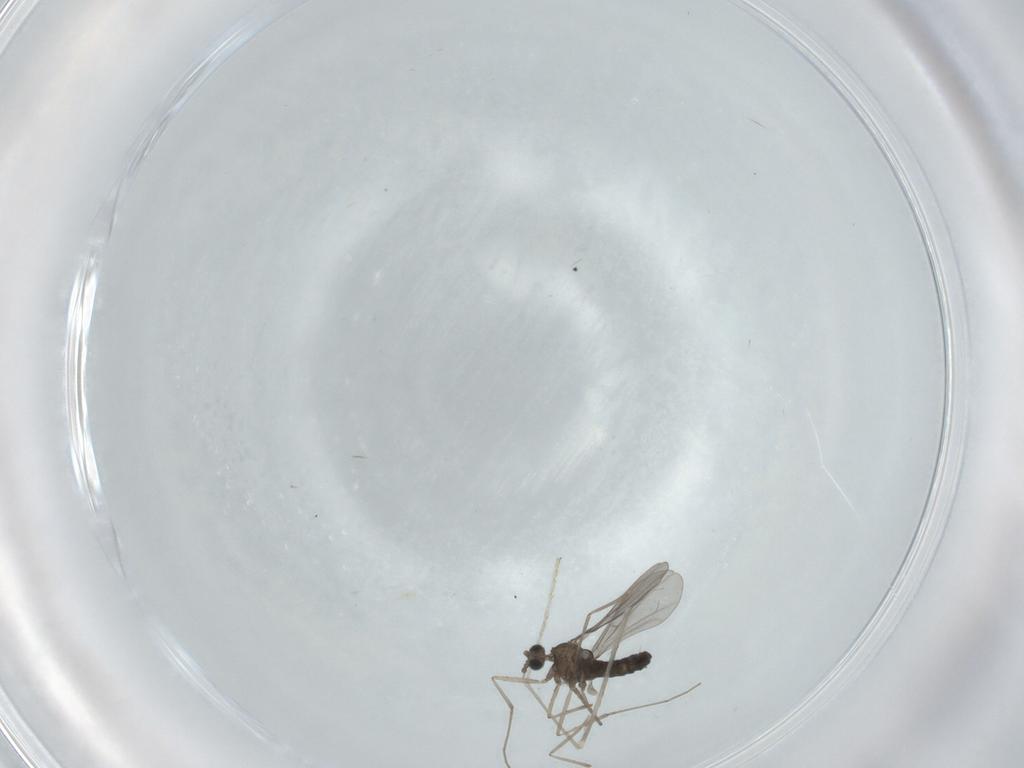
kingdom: Animalia
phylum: Arthropoda
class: Insecta
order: Diptera
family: Cecidomyiidae
